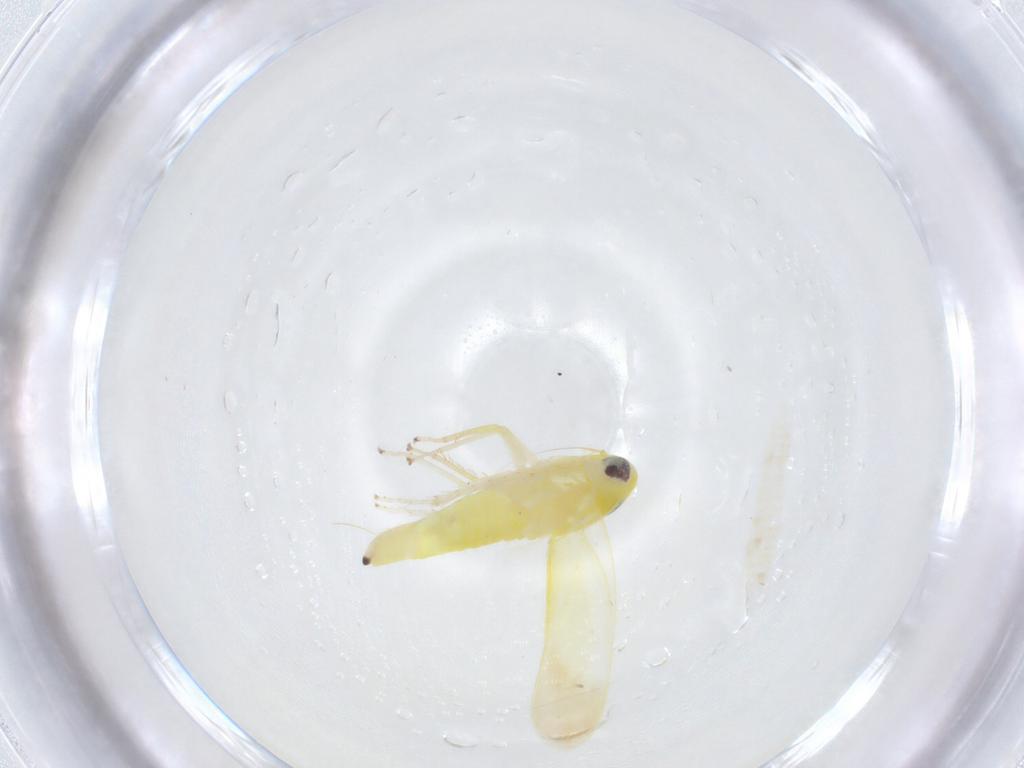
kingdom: Animalia
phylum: Arthropoda
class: Insecta
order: Hemiptera
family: Cicadellidae
